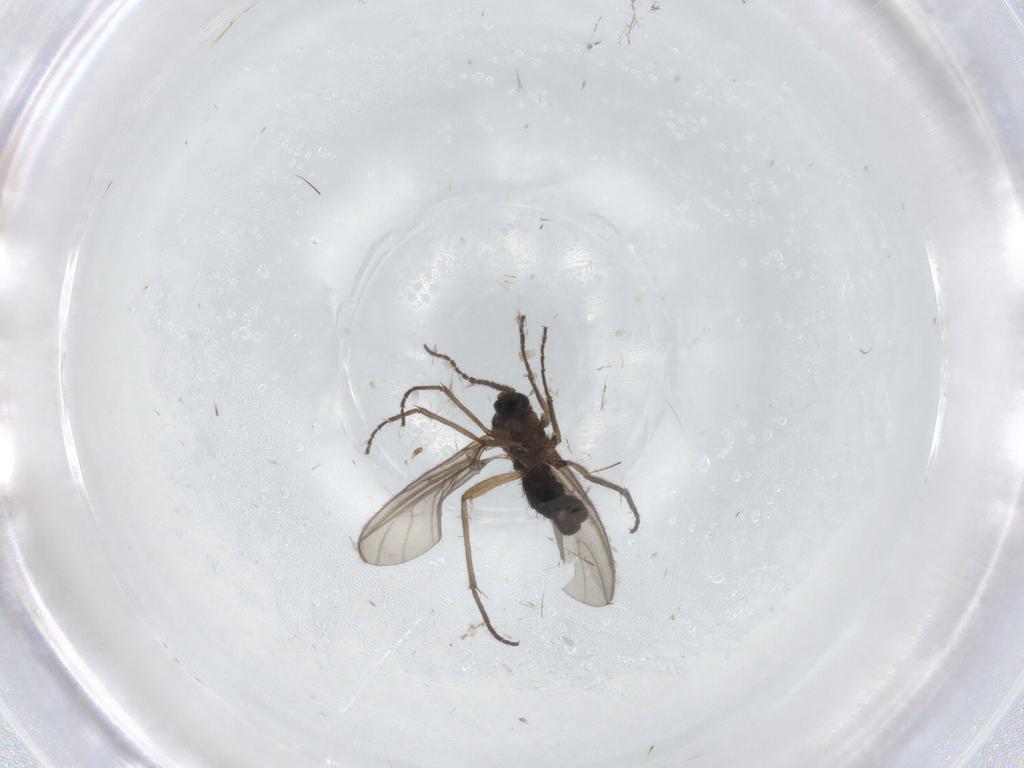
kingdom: Animalia
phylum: Arthropoda
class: Insecta
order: Diptera
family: Sciaridae
